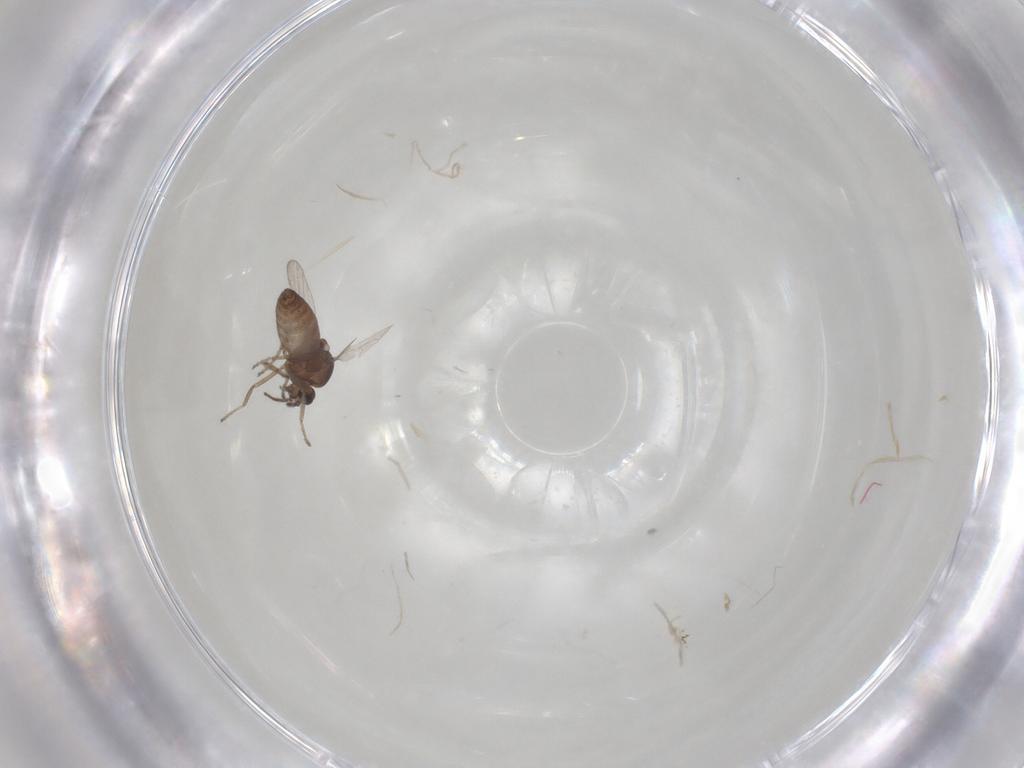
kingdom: Animalia
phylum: Arthropoda
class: Insecta
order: Diptera
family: Ceratopogonidae
